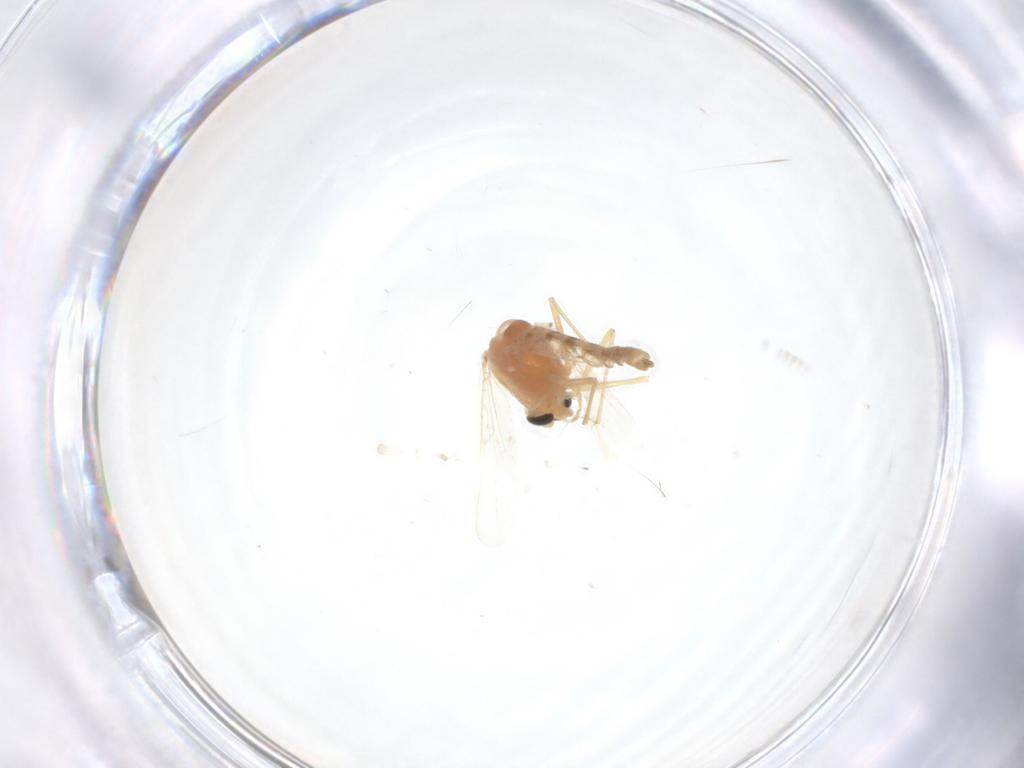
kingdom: Animalia
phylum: Arthropoda
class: Insecta
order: Diptera
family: Chironomidae
